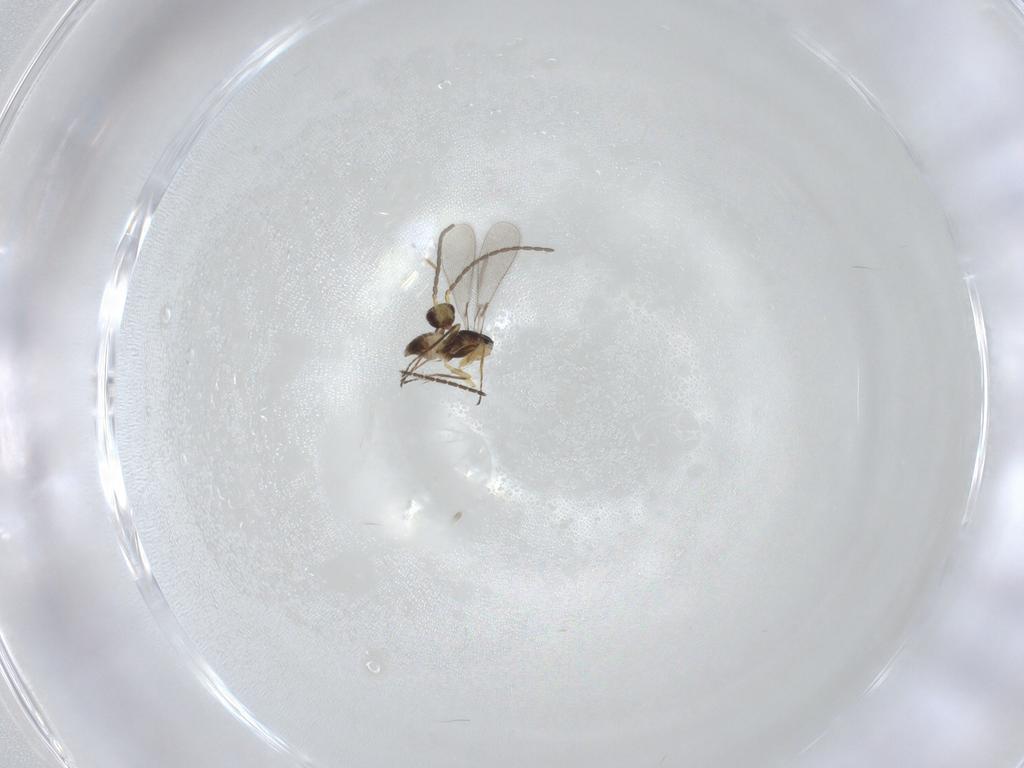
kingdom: Animalia
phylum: Arthropoda
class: Insecta
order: Hymenoptera
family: Mymaridae
